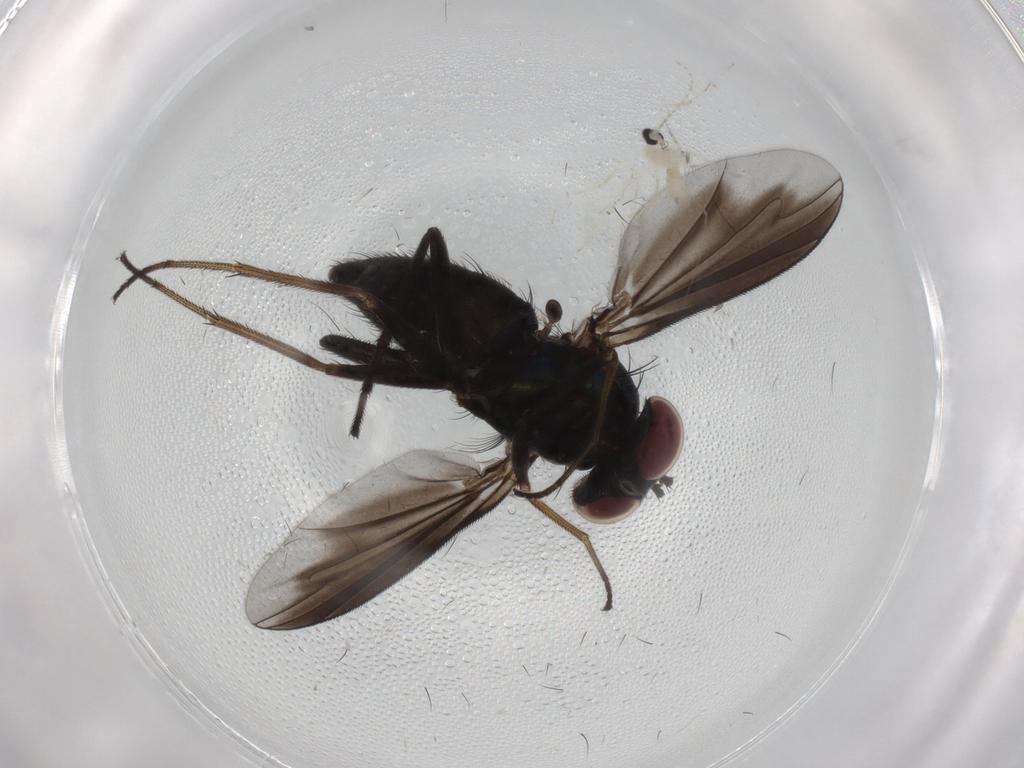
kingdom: Animalia
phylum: Arthropoda
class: Insecta
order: Diptera
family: Dolichopodidae
